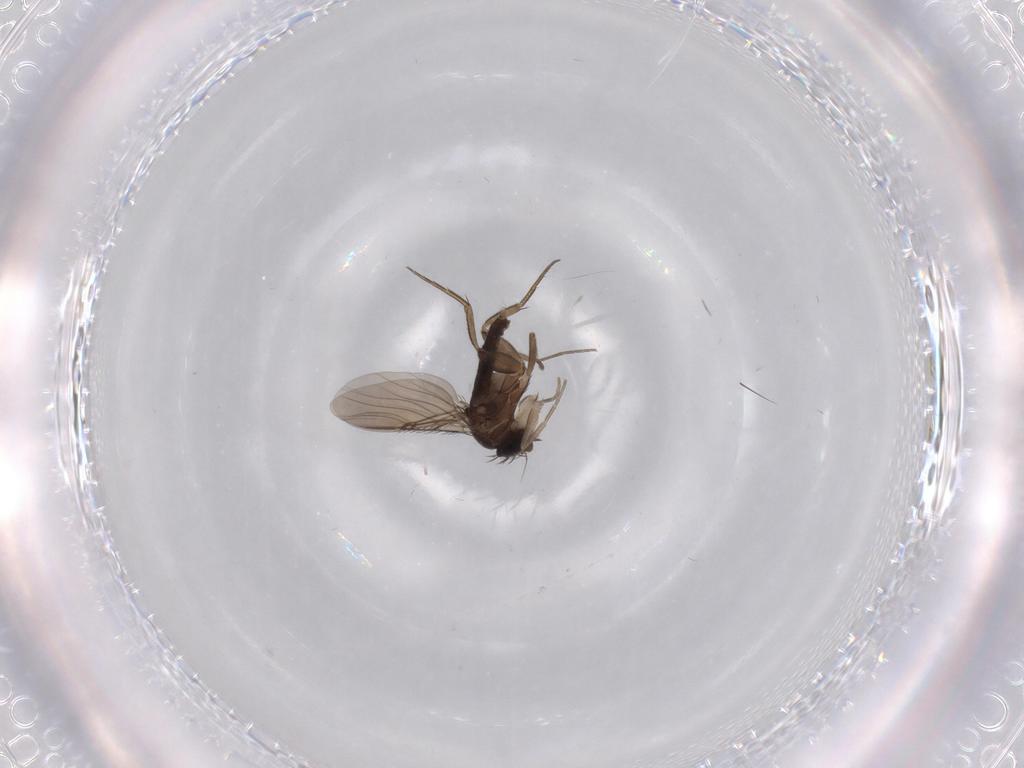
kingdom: Animalia
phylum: Arthropoda
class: Insecta
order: Diptera
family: Phoridae
